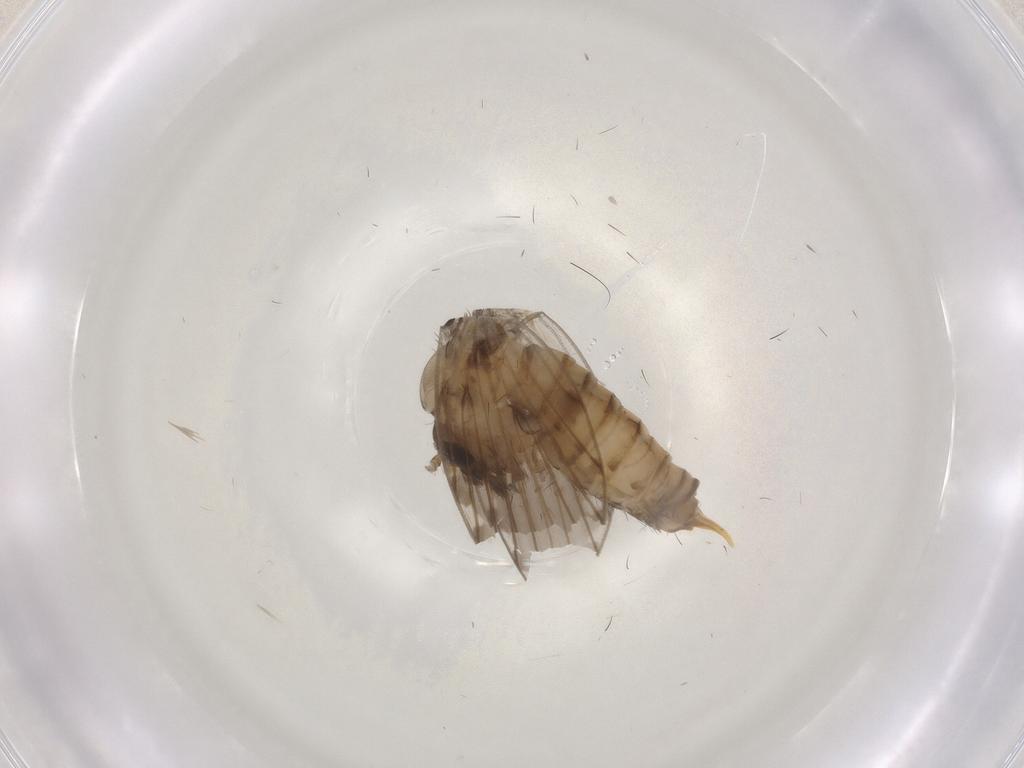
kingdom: Animalia
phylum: Arthropoda
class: Insecta
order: Diptera
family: Psychodidae
